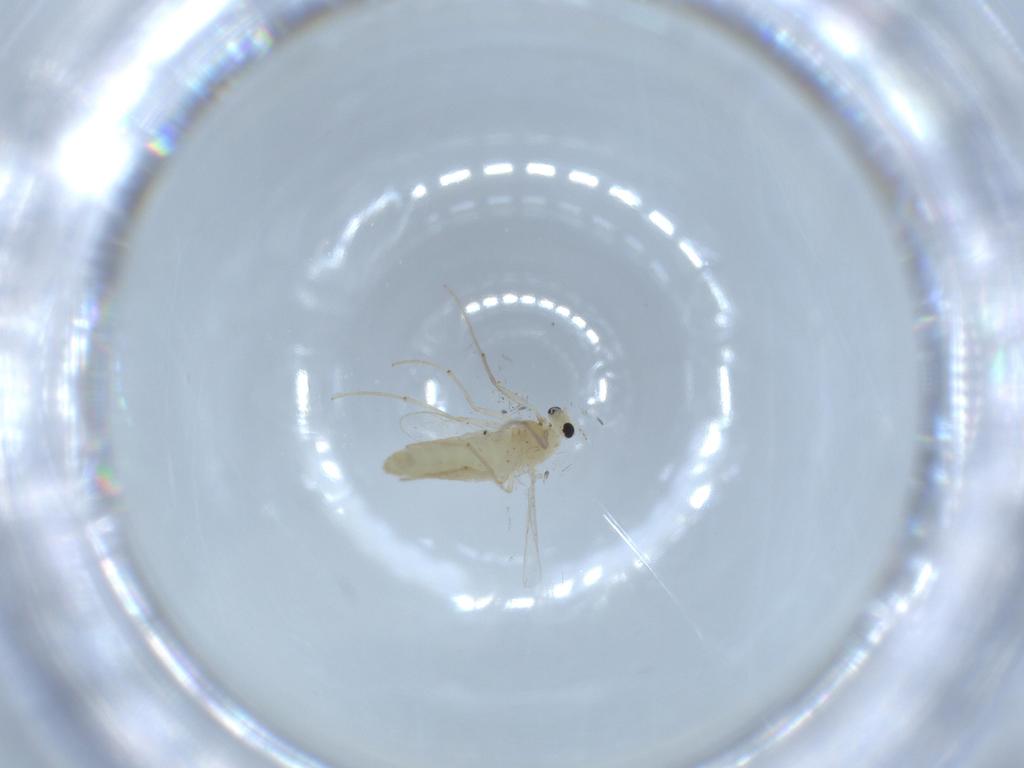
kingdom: Animalia
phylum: Arthropoda
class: Insecta
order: Diptera
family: Chironomidae
